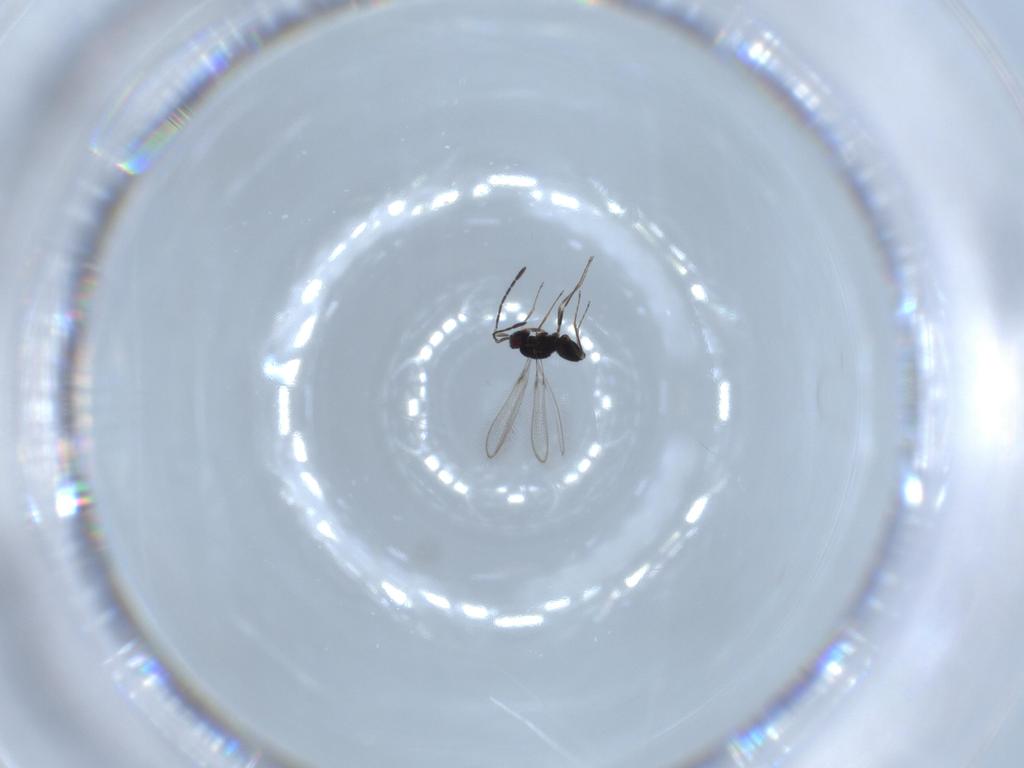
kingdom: Animalia
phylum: Arthropoda
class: Insecta
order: Hymenoptera
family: Mymaridae
